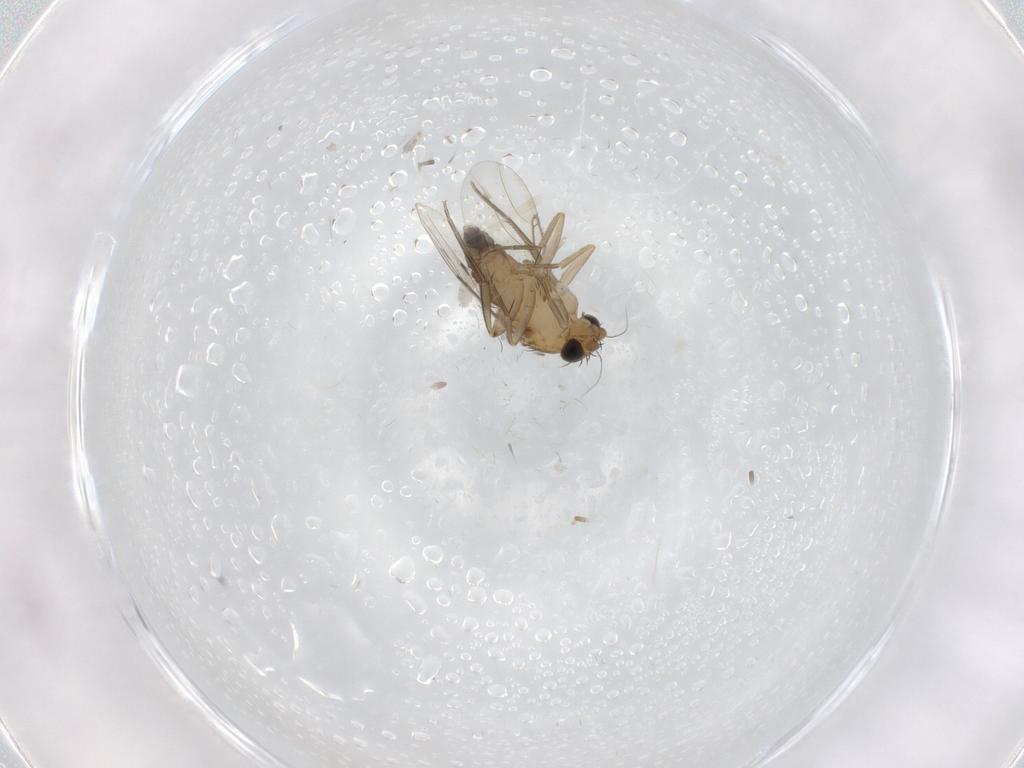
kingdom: Animalia
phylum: Arthropoda
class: Insecta
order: Diptera
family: Phoridae
